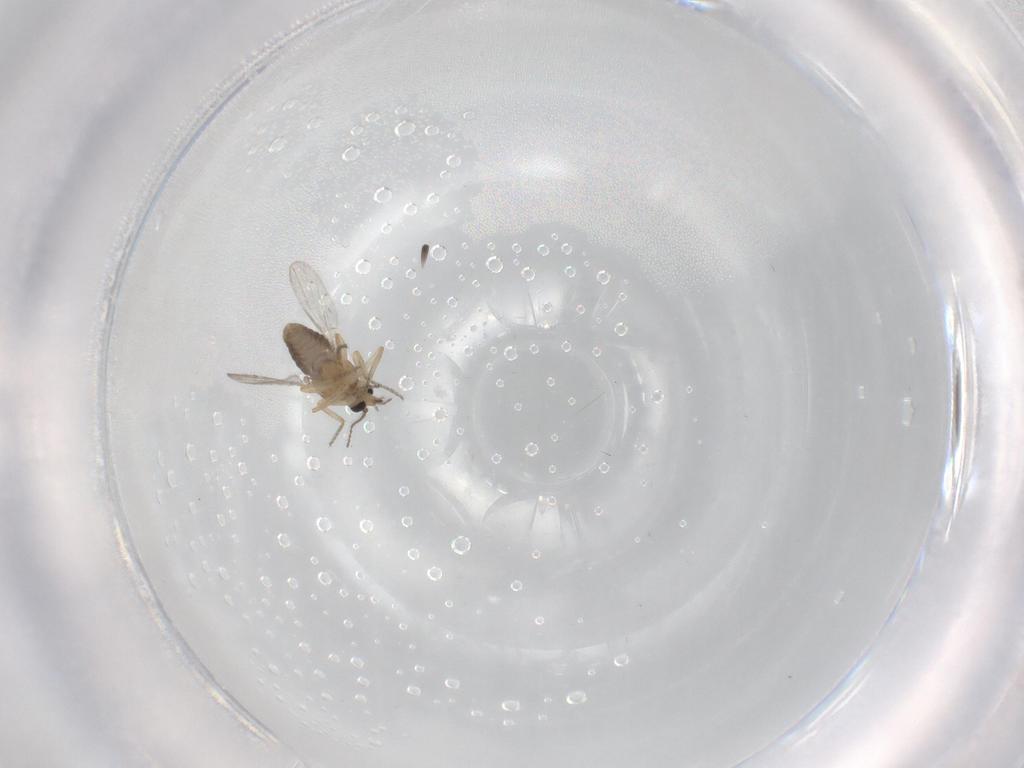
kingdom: Animalia
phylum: Arthropoda
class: Insecta
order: Diptera
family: Ceratopogonidae
